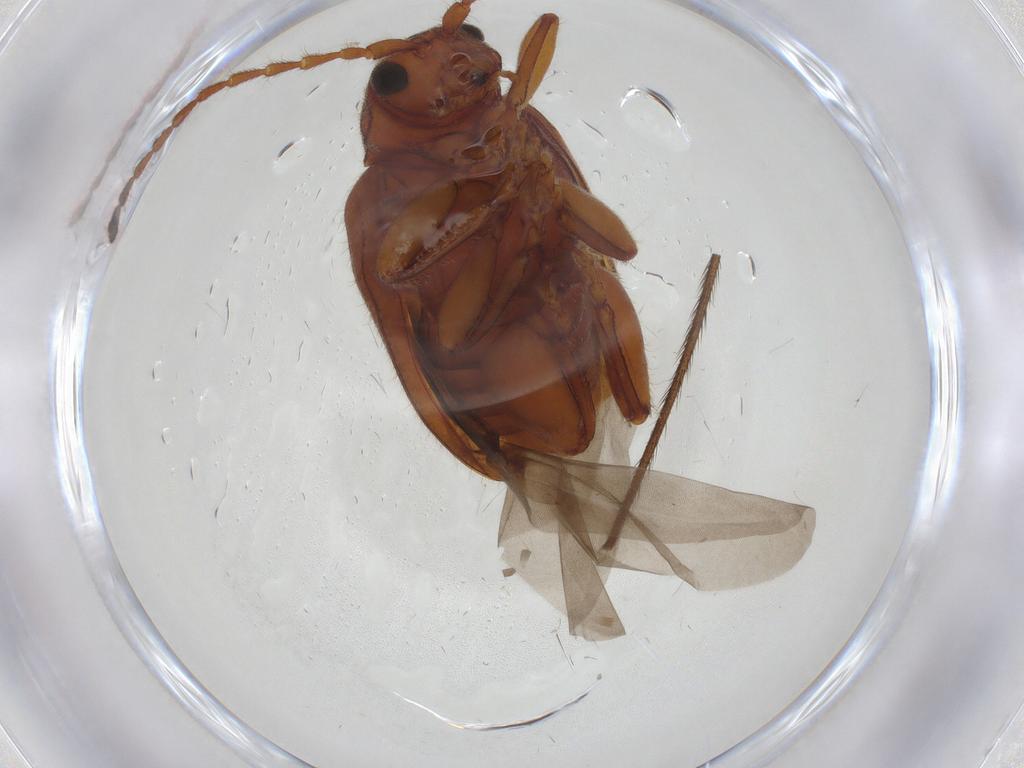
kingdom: Animalia
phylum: Arthropoda
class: Insecta
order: Coleoptera
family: Chrysomelidae
